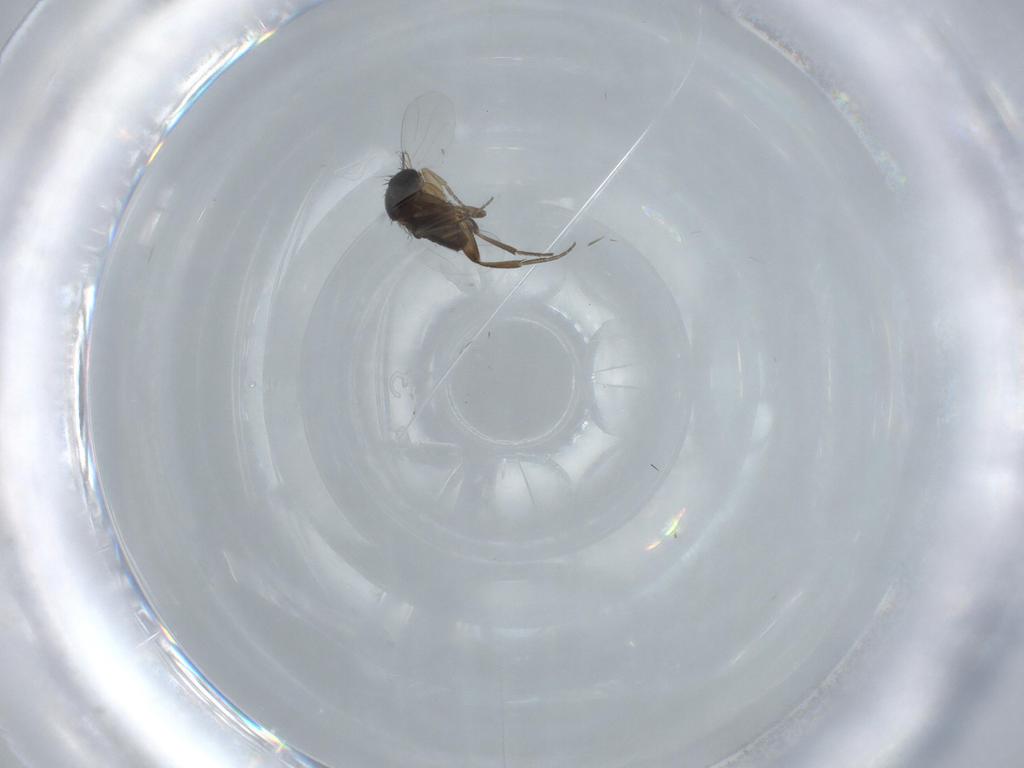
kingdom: Animalia
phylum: Arthropoda
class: Insecta
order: Diptera
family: Phoridae
